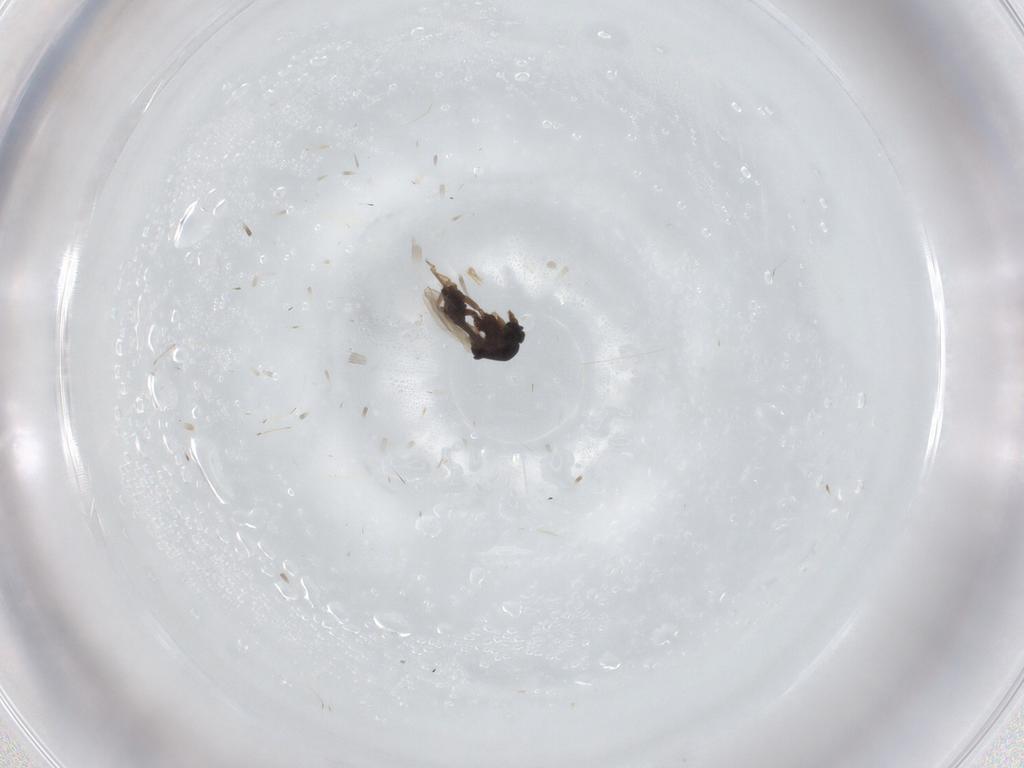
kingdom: Animalia
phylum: Arthropoda
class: Insecta
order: Diptera
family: Ceratopogonidae
